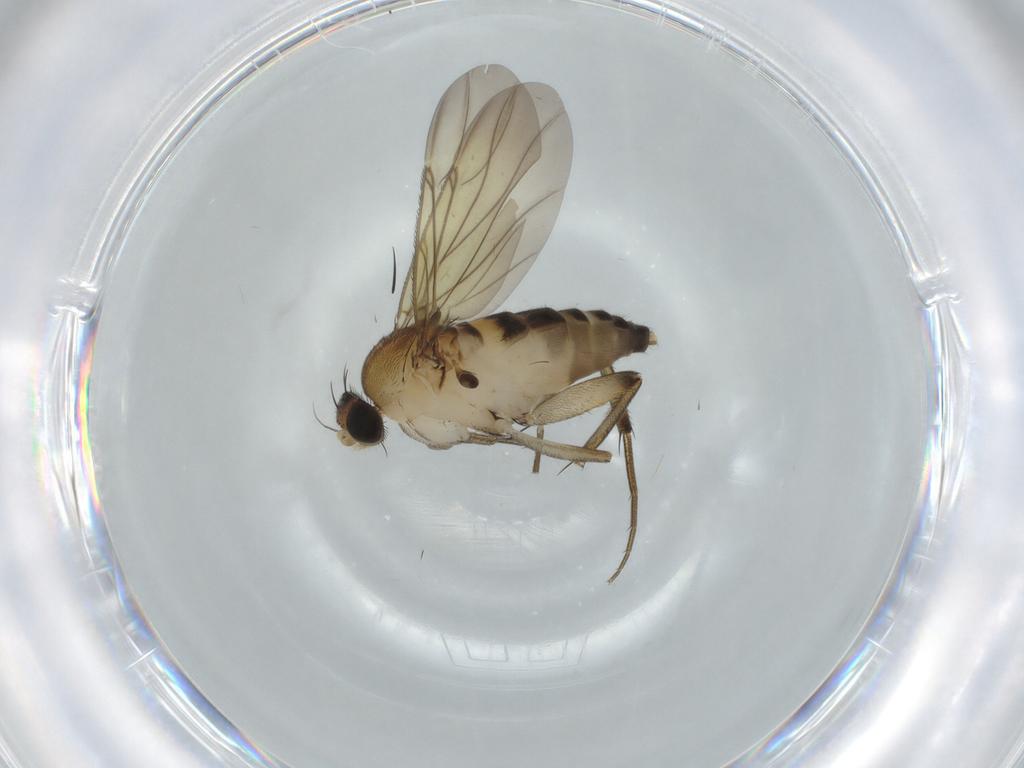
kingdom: Animalia
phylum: Arthropoda
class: Insecta
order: Diptera
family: Phoridae
